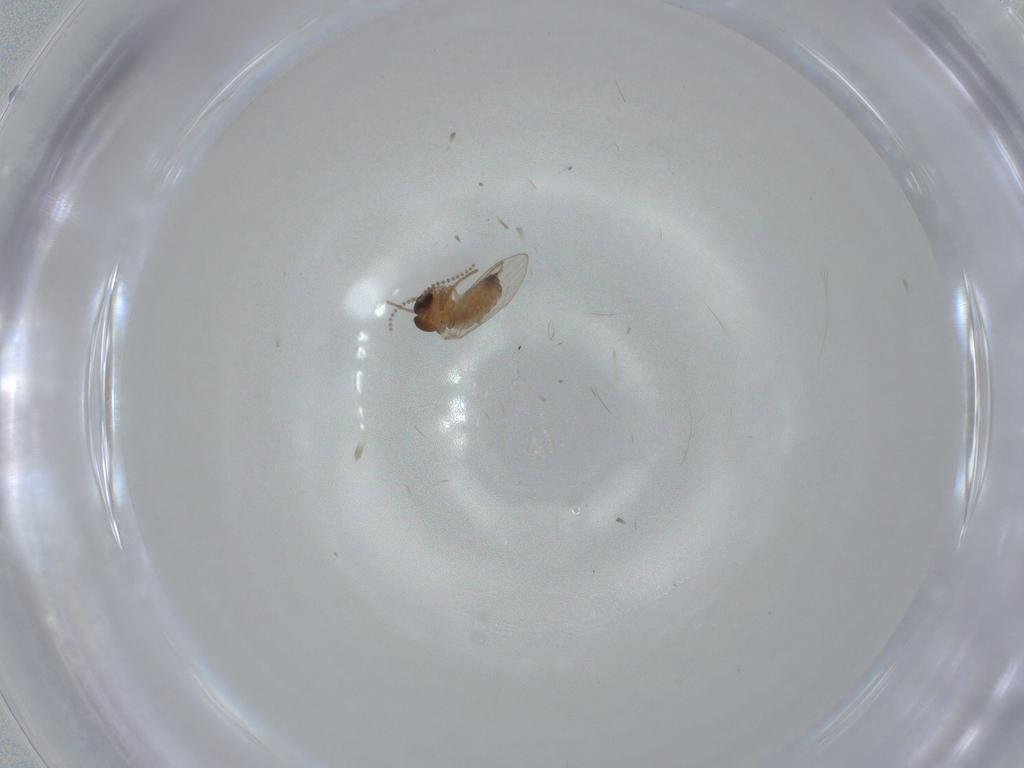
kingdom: Animalia
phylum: Arthropoda
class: Insecta
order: Diptera
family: Psychodidae
